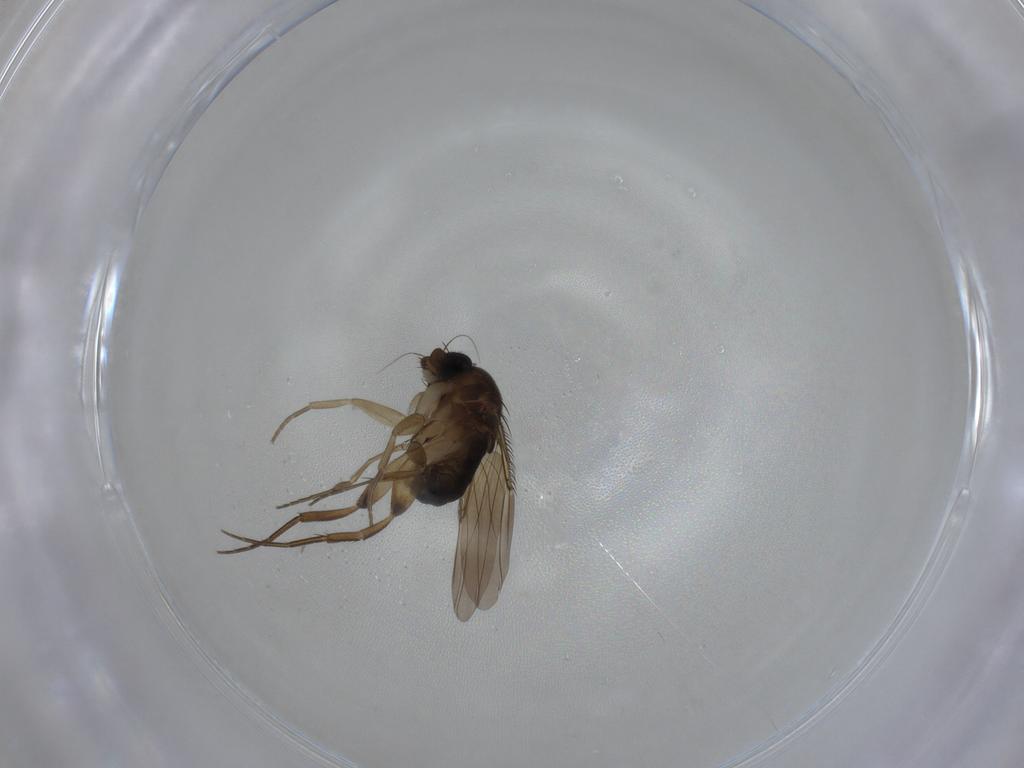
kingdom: Animalia
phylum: Arthropoda
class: Insecta
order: Diptera
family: Phoridae
